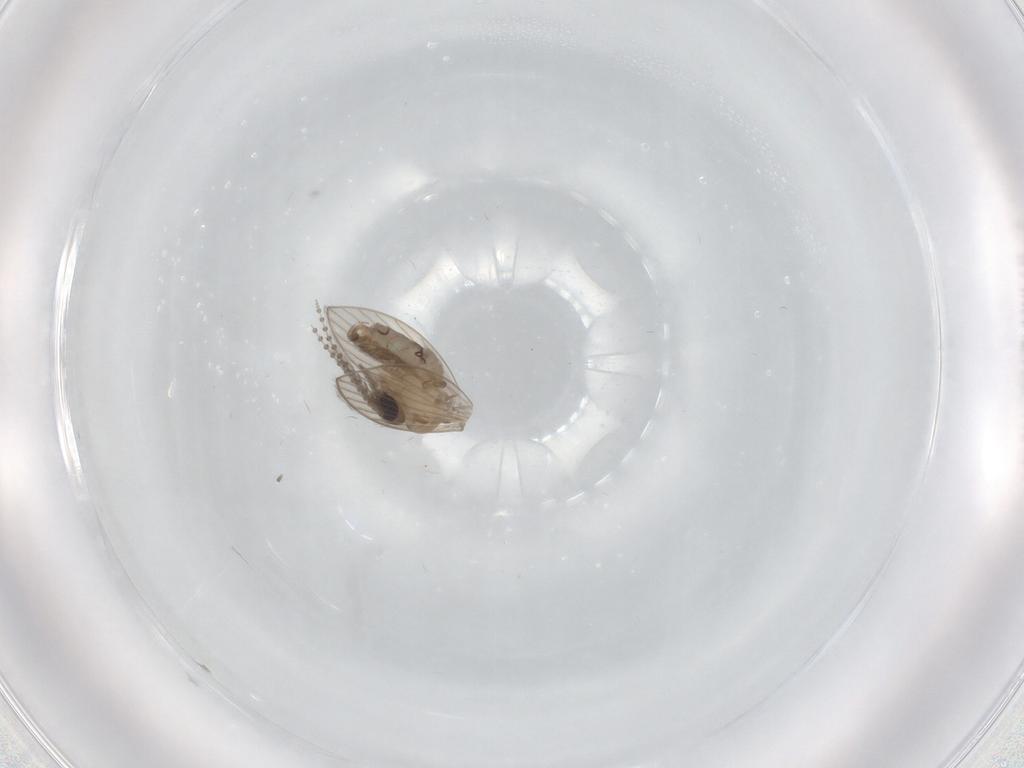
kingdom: Animalia
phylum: Arthropoda
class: Insecta
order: Diptera
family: Psychodidae
